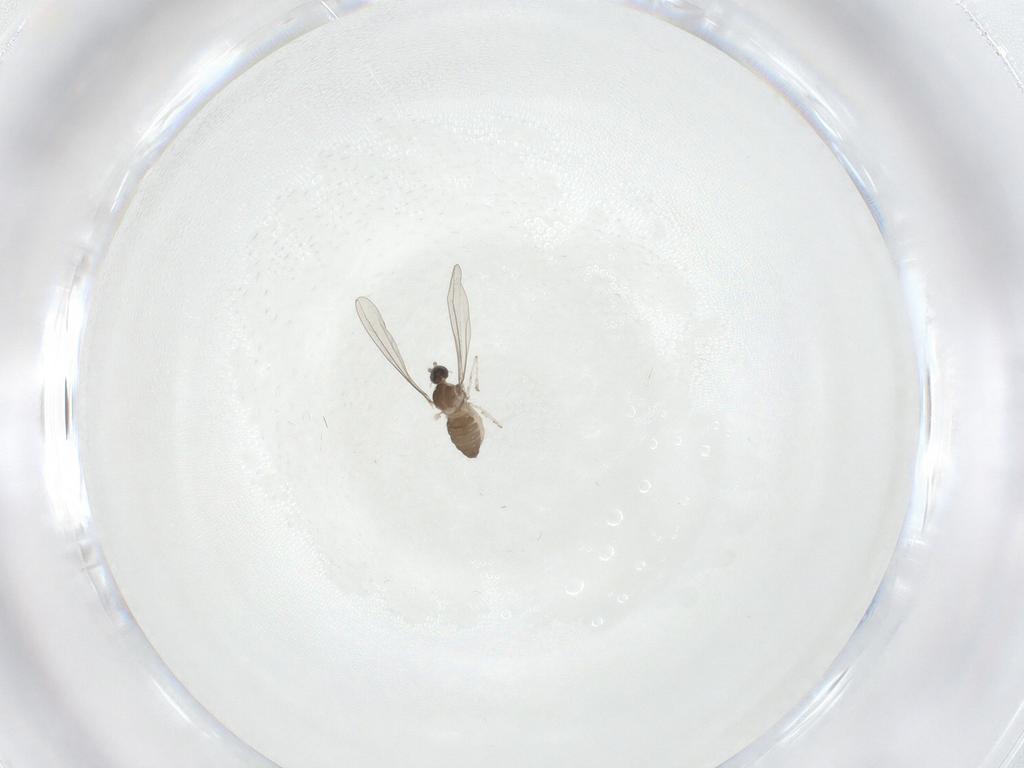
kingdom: Animalia
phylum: Arthropoda
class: Insecta
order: Diptera
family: Cecidomyiidae
